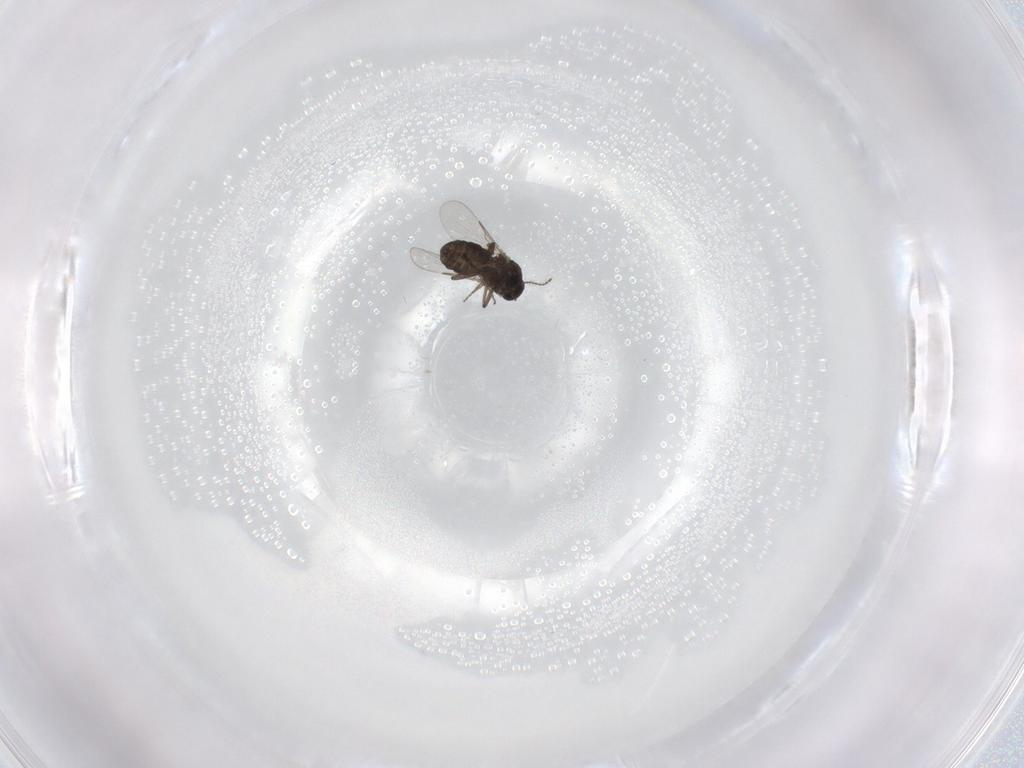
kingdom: Animalia
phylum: Arthropoda
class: Insecta
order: Diptera
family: Ceratopogonidae
